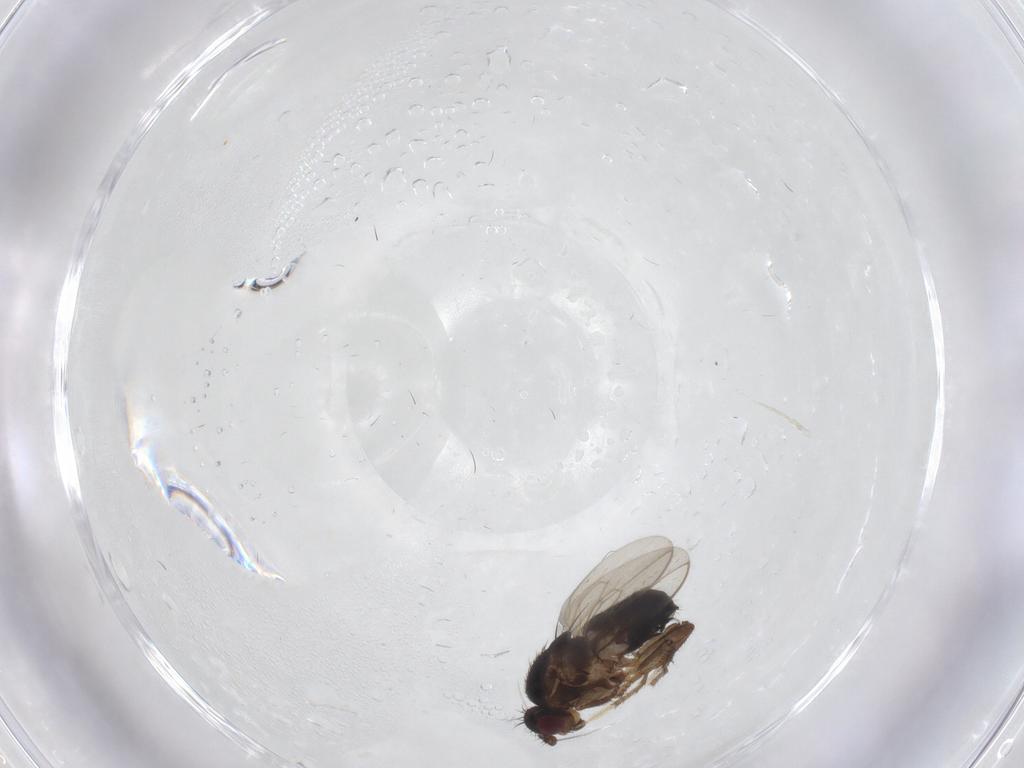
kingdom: Animalia
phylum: Arthropoda
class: Insecta
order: Diptera
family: Sphaeroceridae
